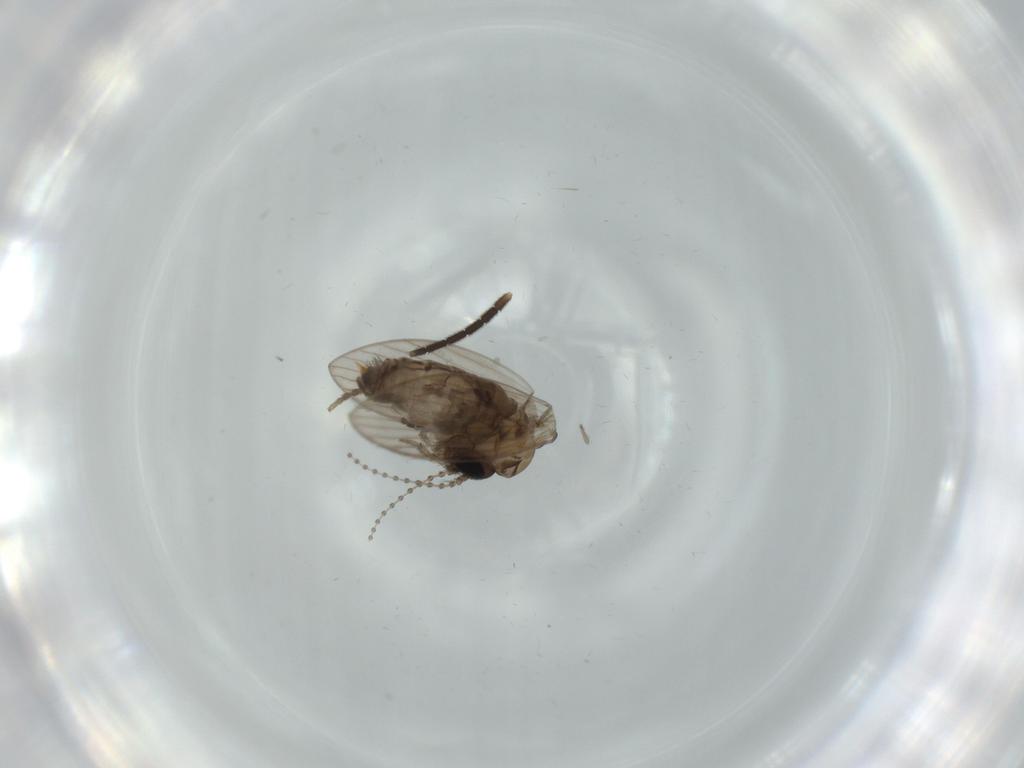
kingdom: Animalia
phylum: Arthropoda
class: Insecta
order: Diptera
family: Psychodidae
